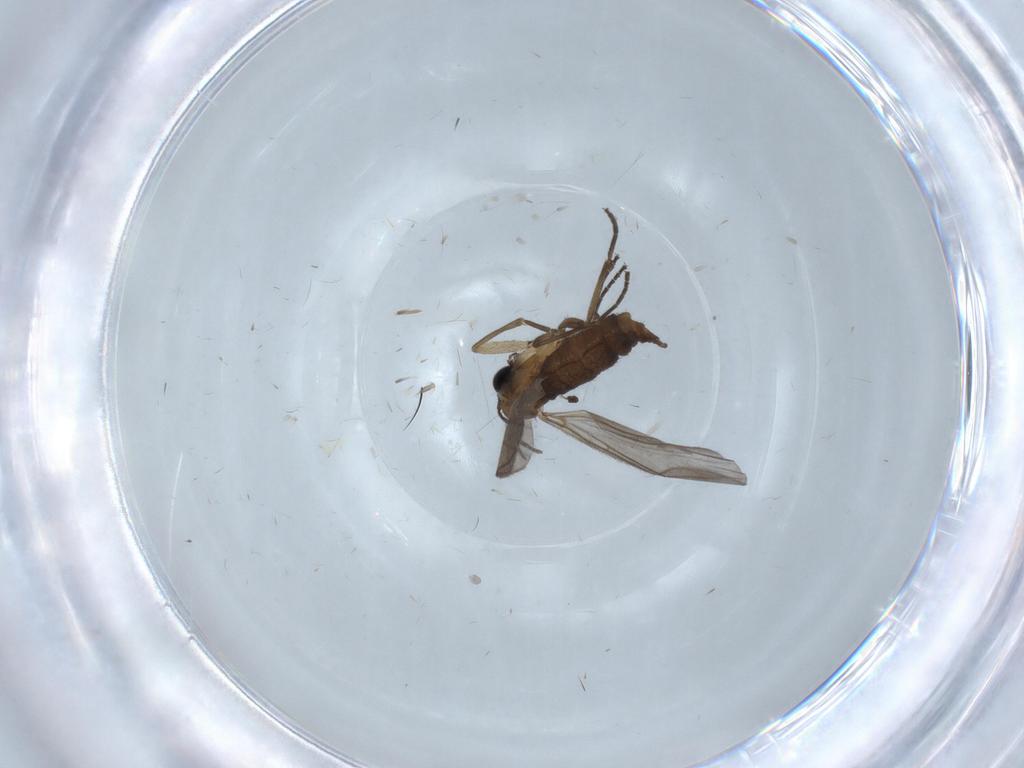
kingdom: Animalia
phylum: Arthropoda
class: Insecta
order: Diptera
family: Sciaridae
